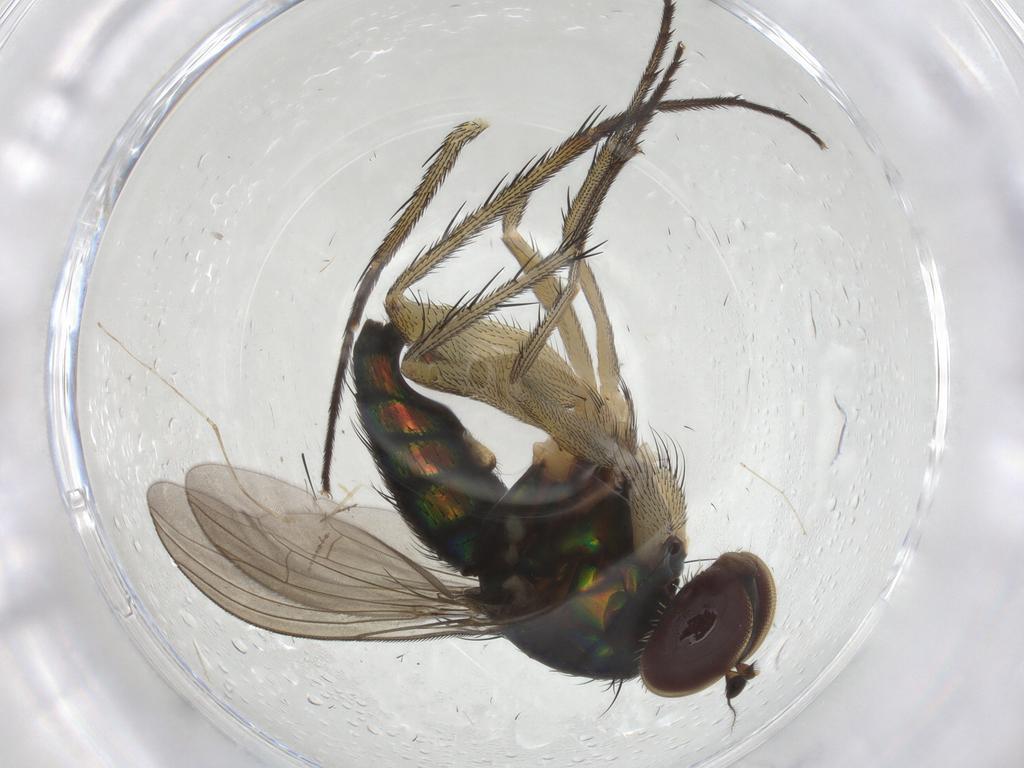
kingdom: Animalia
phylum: Arthropoda
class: Insecta
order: Diptera
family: Dolichopodidae
